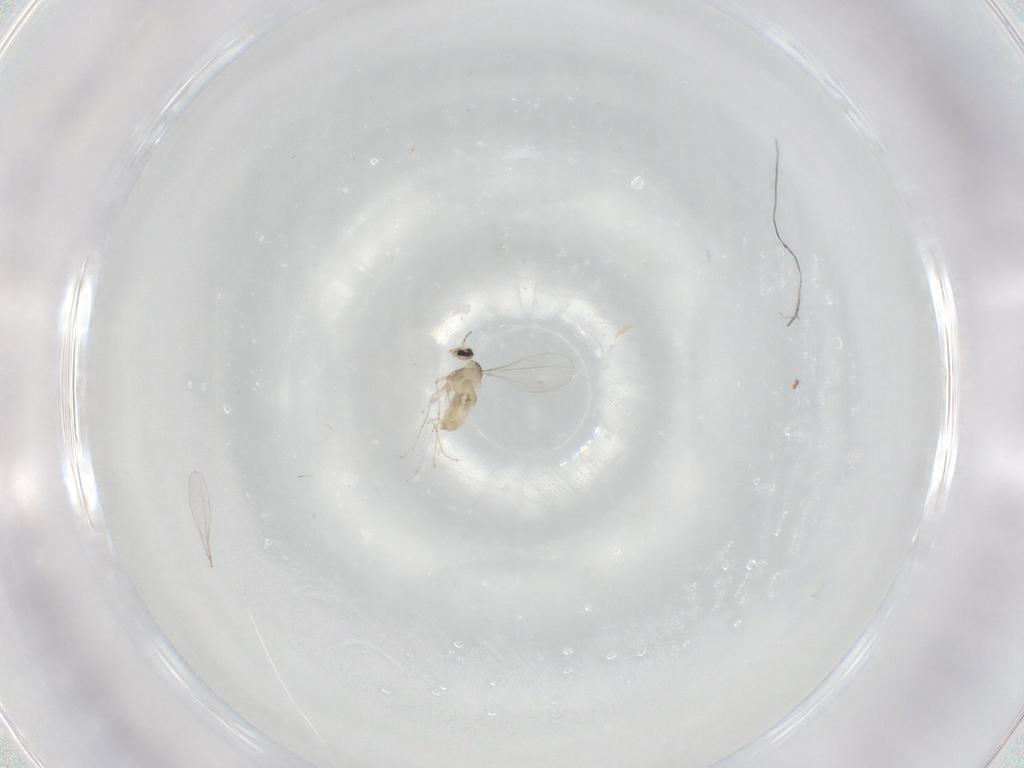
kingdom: Animalia
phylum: Arthropoda
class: Insecta
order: Diptera
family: Cecidomyiidae
